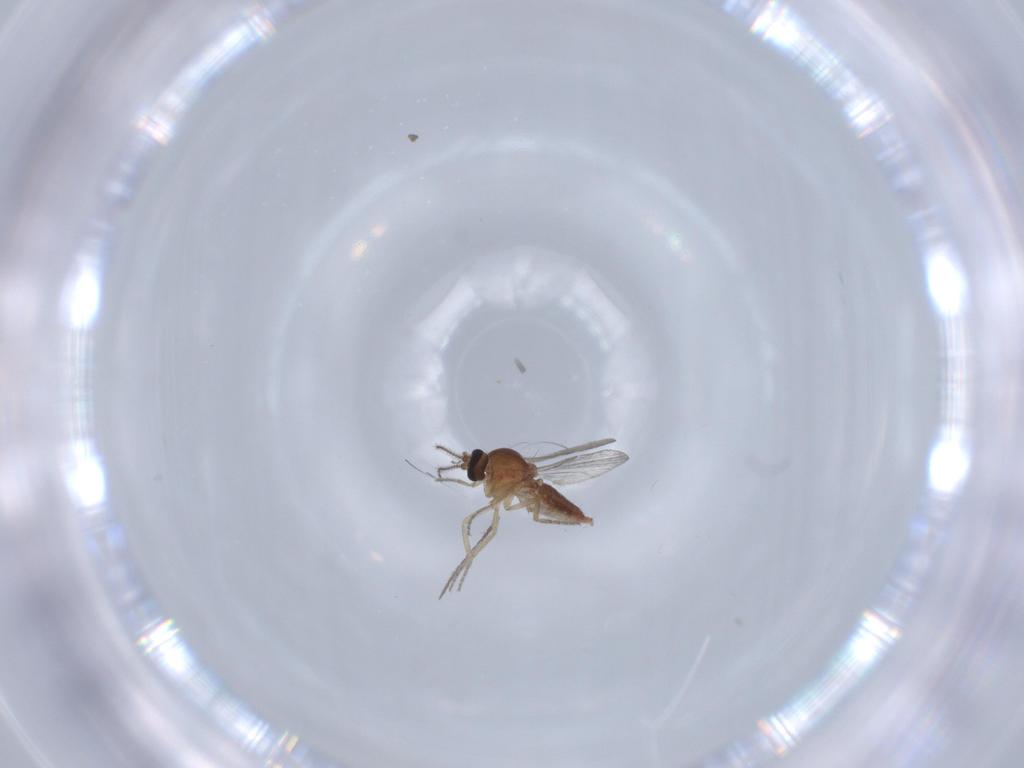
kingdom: Animalia
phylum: Arthropoda
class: Insecta
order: Diptera
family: Ceratopogonidae
